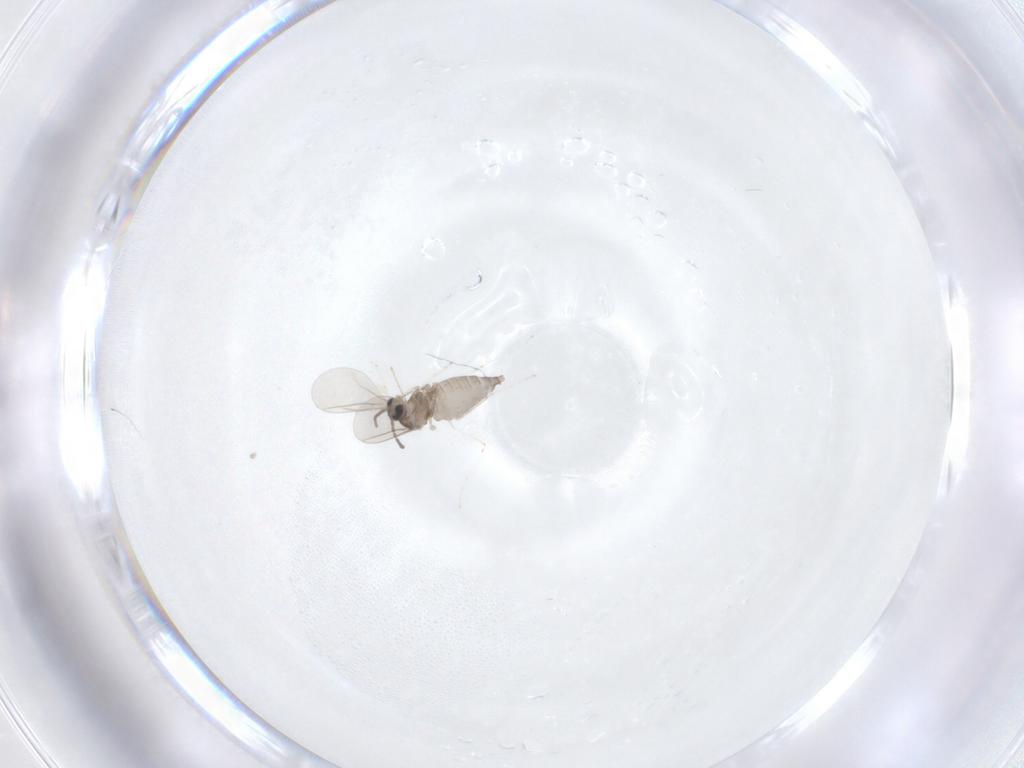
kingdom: Animalia
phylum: Arthropoda
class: Insecta
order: Diptera
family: Cecidomyiidae
